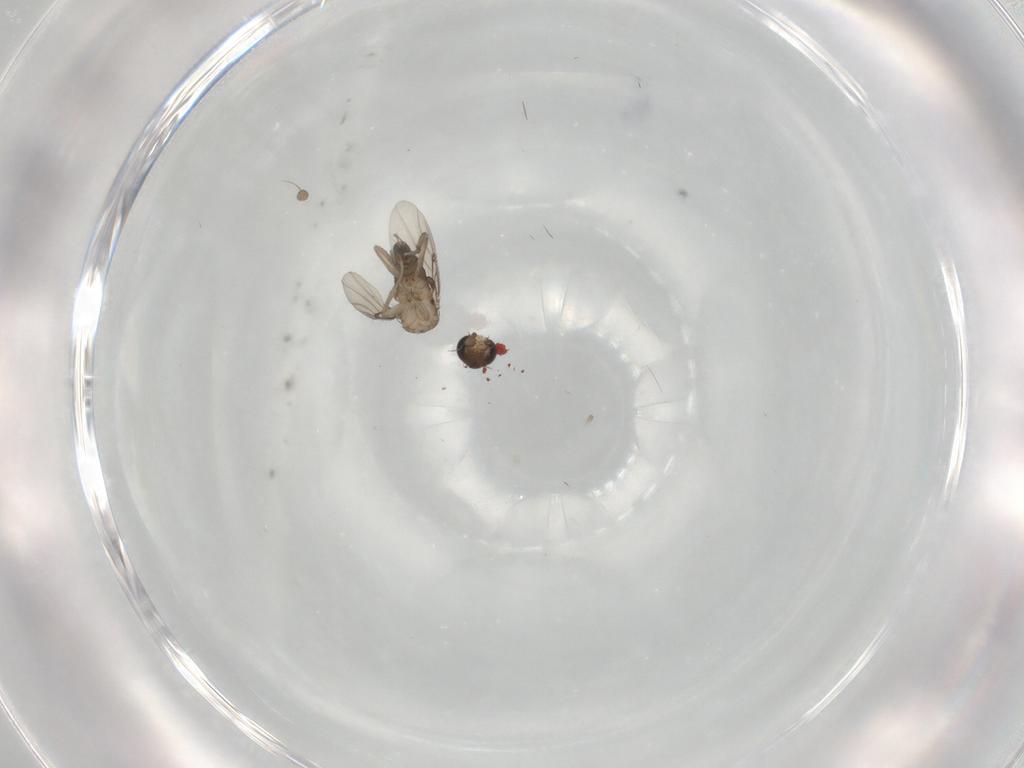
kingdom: Animalia
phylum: Arthropoda
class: Insecta
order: Diptera
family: Phoridae
